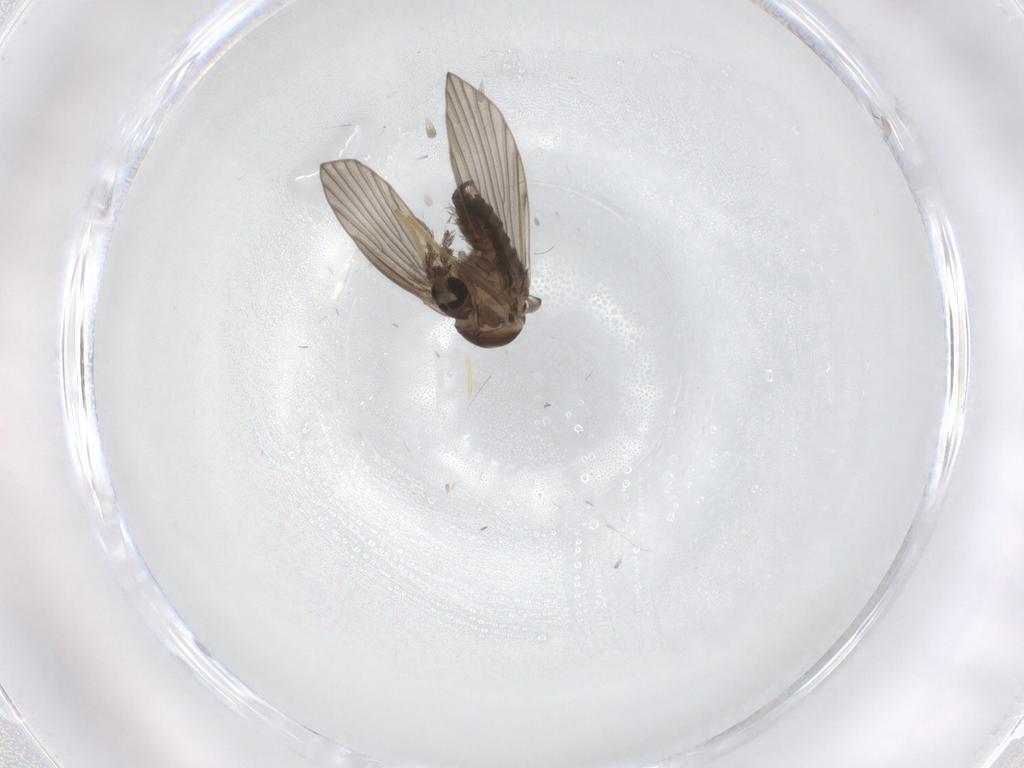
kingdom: Animalia
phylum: Arthropoda
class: Insecta
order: Diptera
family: Psychodidae
